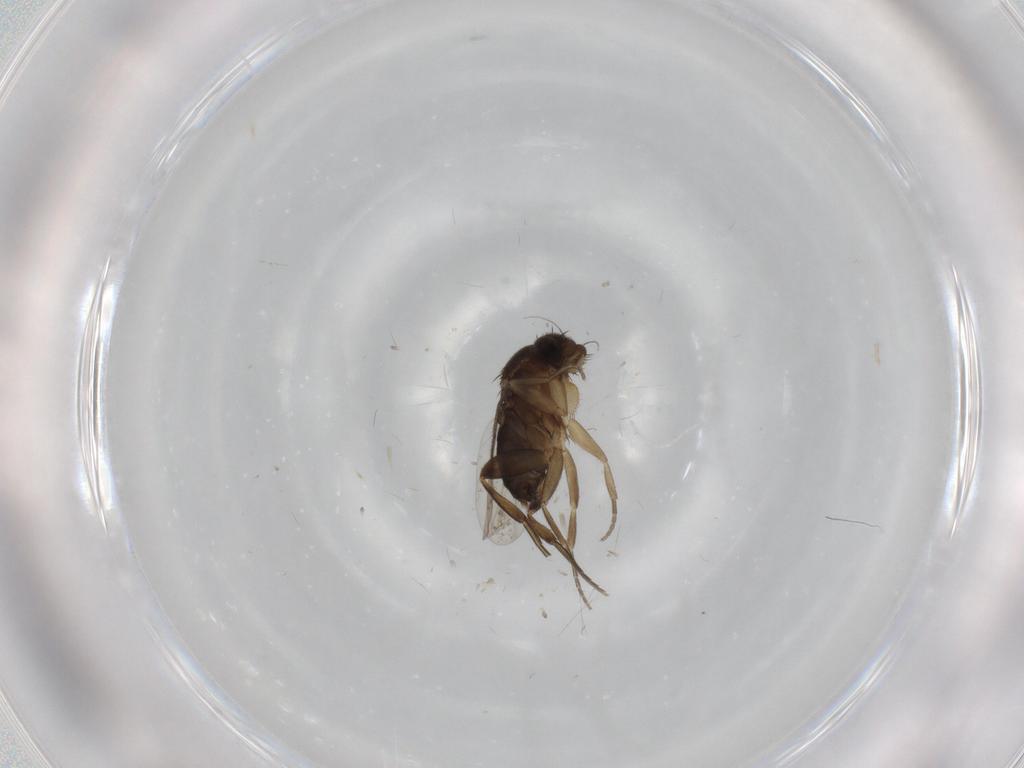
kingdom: Animalia
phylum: Arthropoda
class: Insecta
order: Diptera
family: Phoridae
